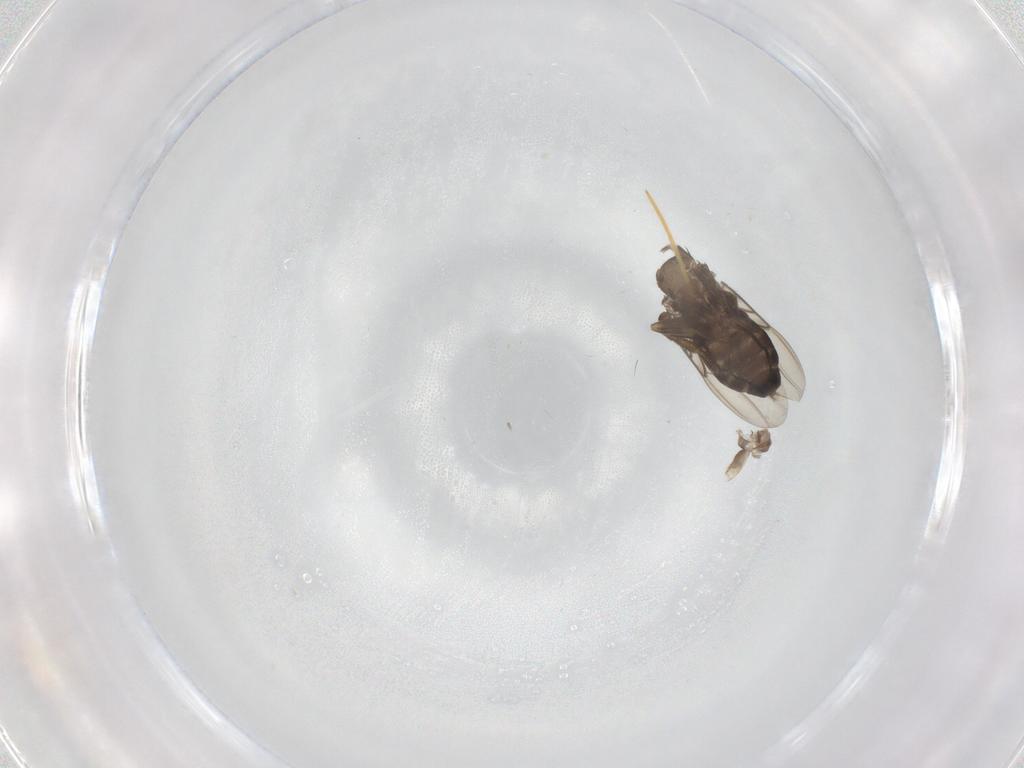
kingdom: Animalia
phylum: Arthropoda
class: Insecta
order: Diptera
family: Phoridae
